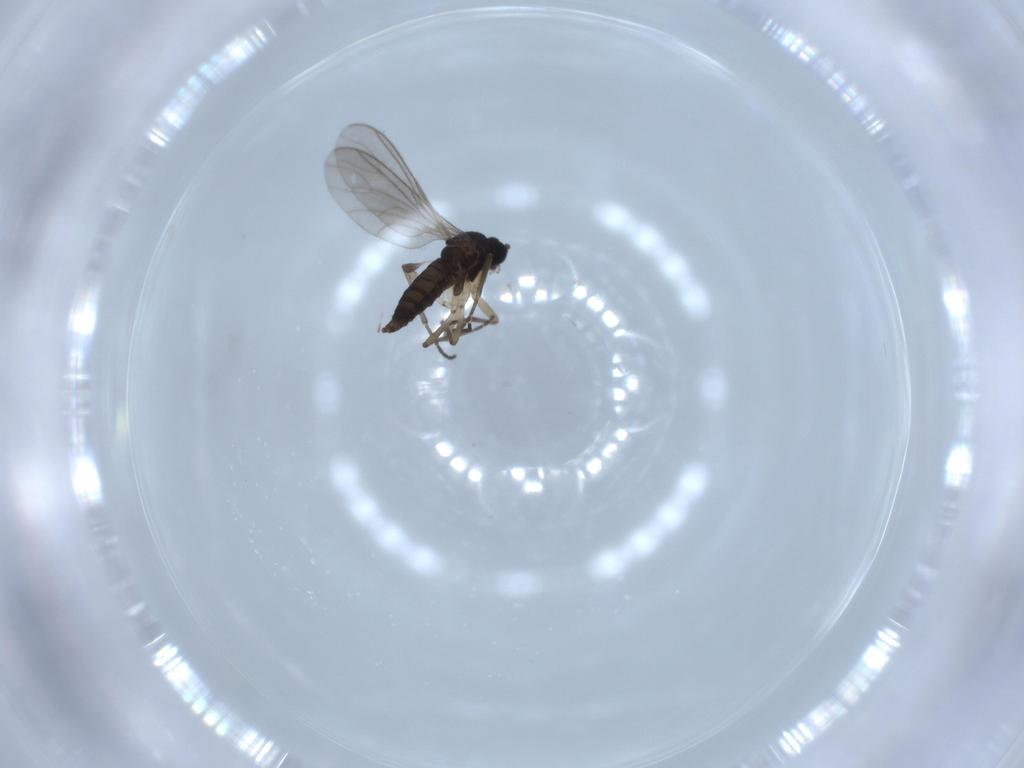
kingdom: Animalia
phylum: Arthropoda
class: Insecta
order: Diptera
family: Sciaridae
